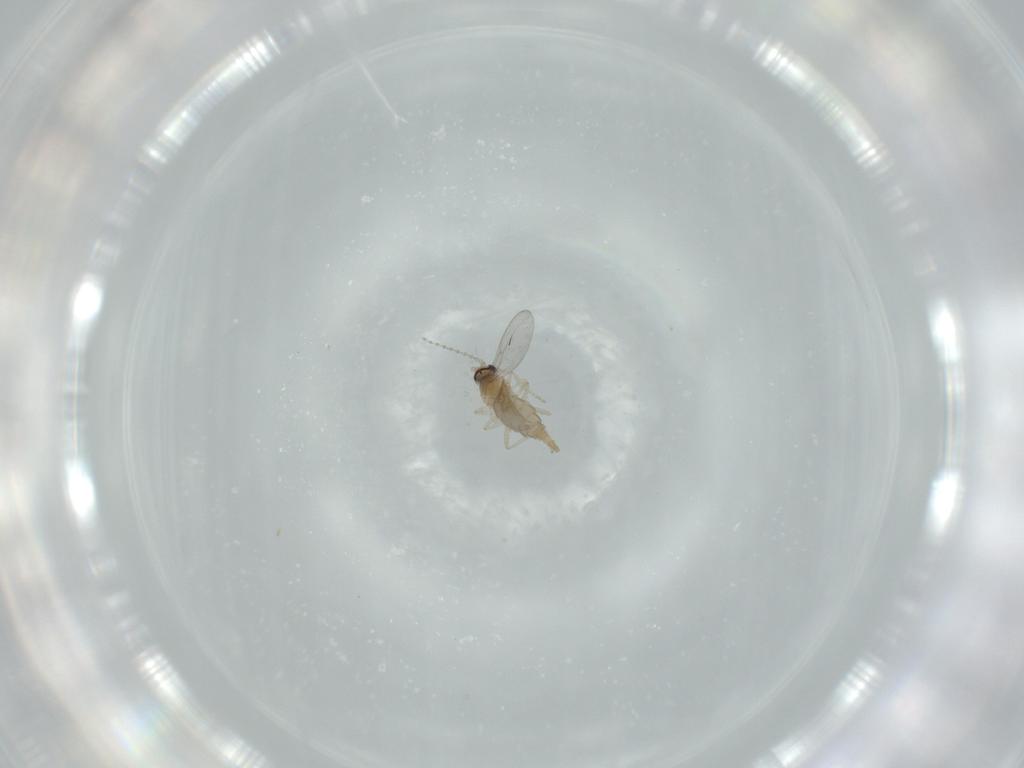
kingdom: Animalia
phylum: Arthropoda
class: Insecta
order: Diptera
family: Cecidomyiidae
